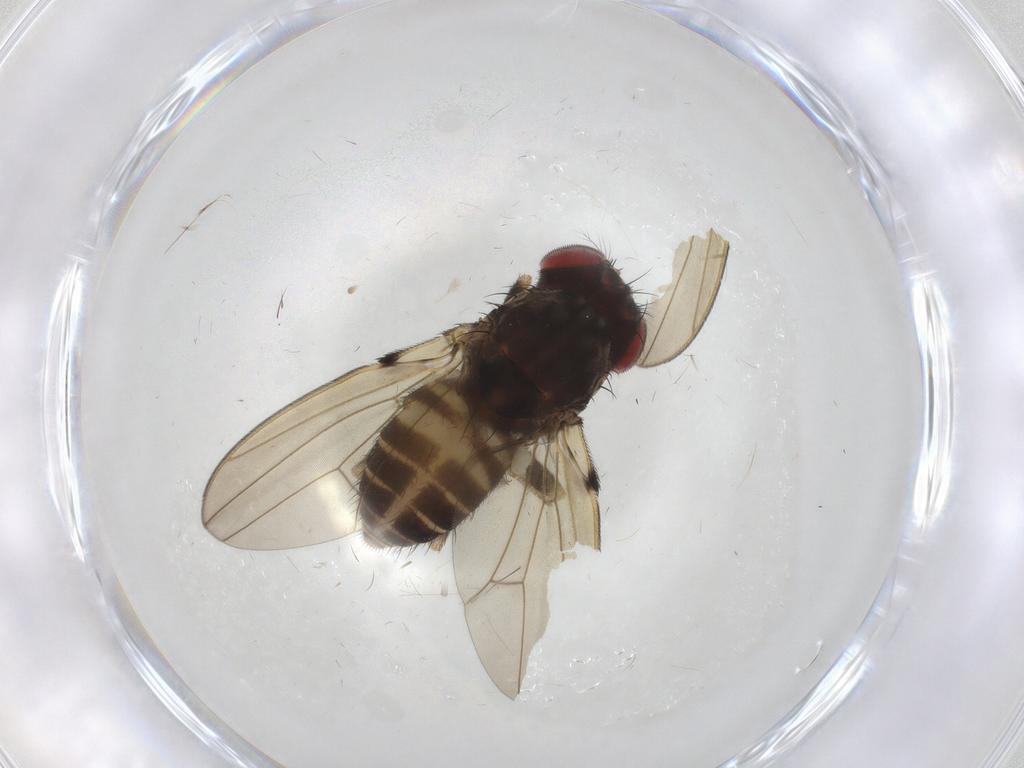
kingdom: Animalia
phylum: Arthropoda
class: Insecta
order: Diptera
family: Drosophilidae
